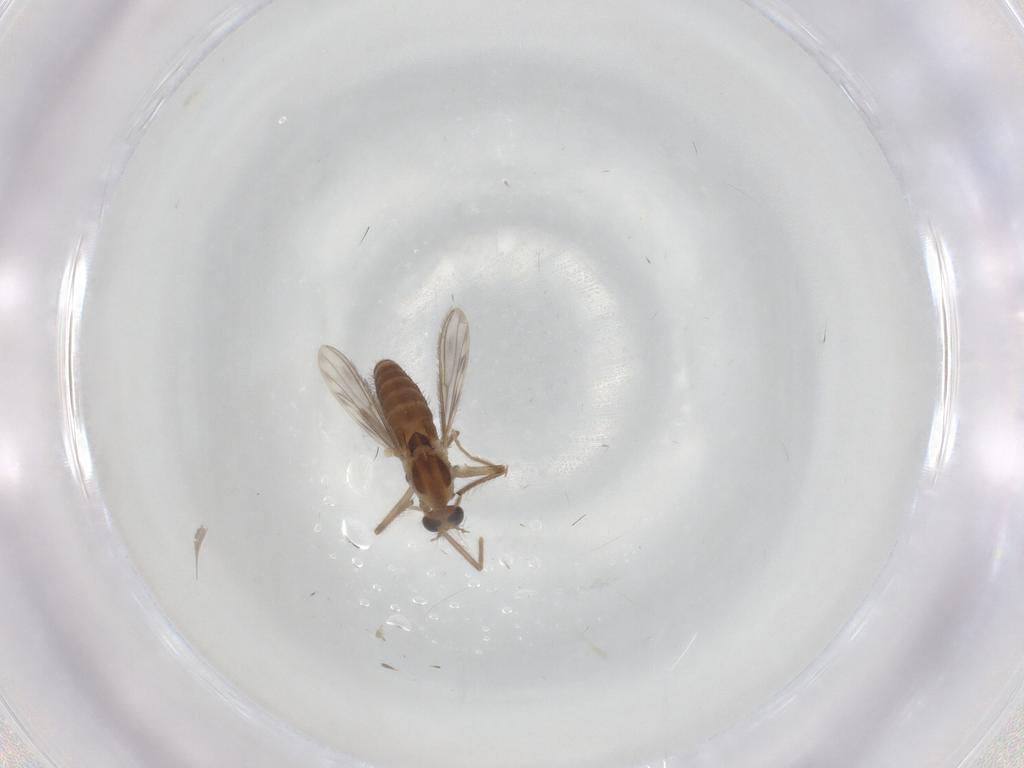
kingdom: Animalia
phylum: Arthropoda
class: Insecta
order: Diptera
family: Chironomidae
